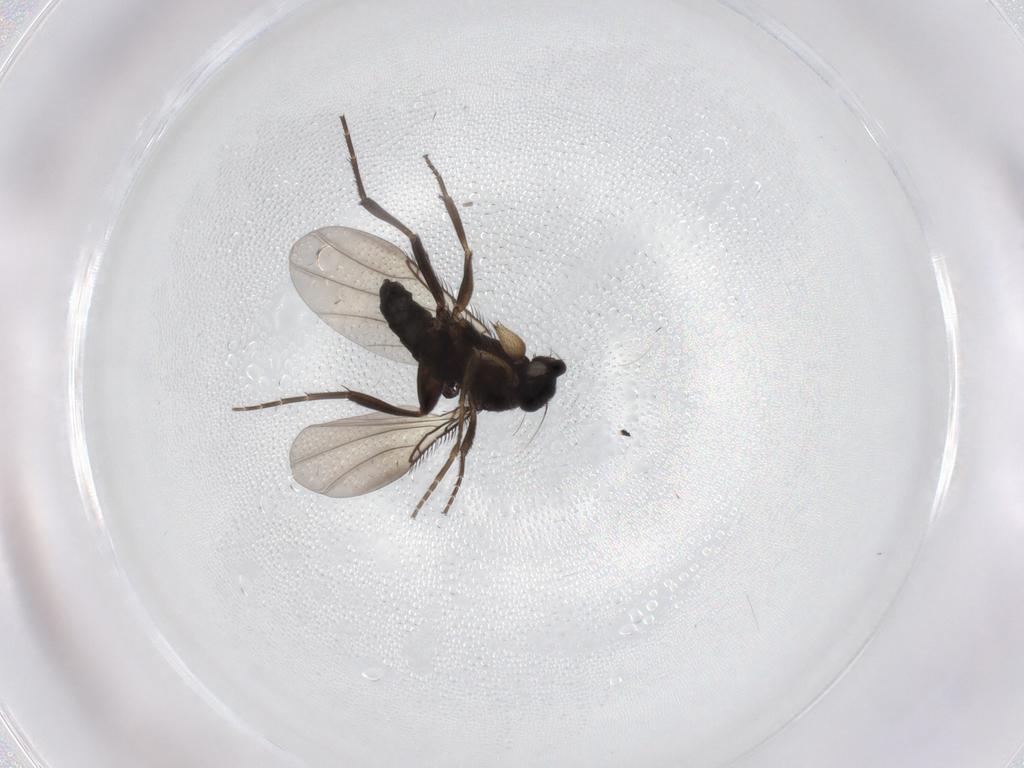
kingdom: Animalia
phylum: Arthropoda
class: Insecta
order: Diptera
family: Phoridae
